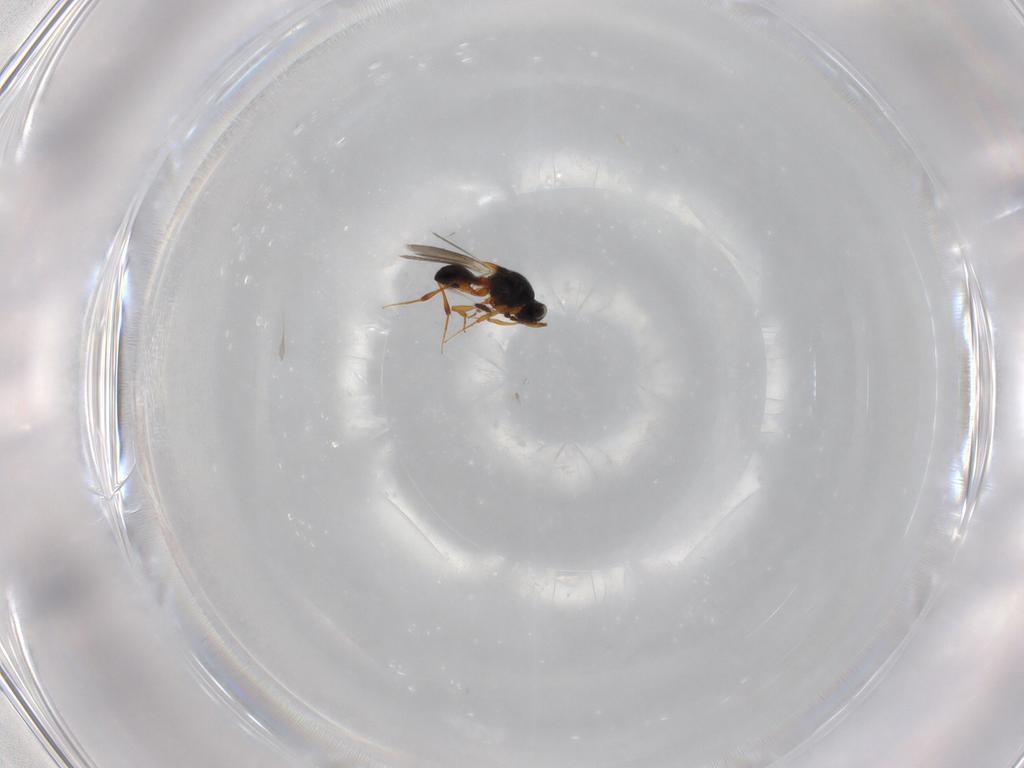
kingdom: Animalia
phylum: Arthropoda
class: Insecta
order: Hymenoptera
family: Platygastridae
